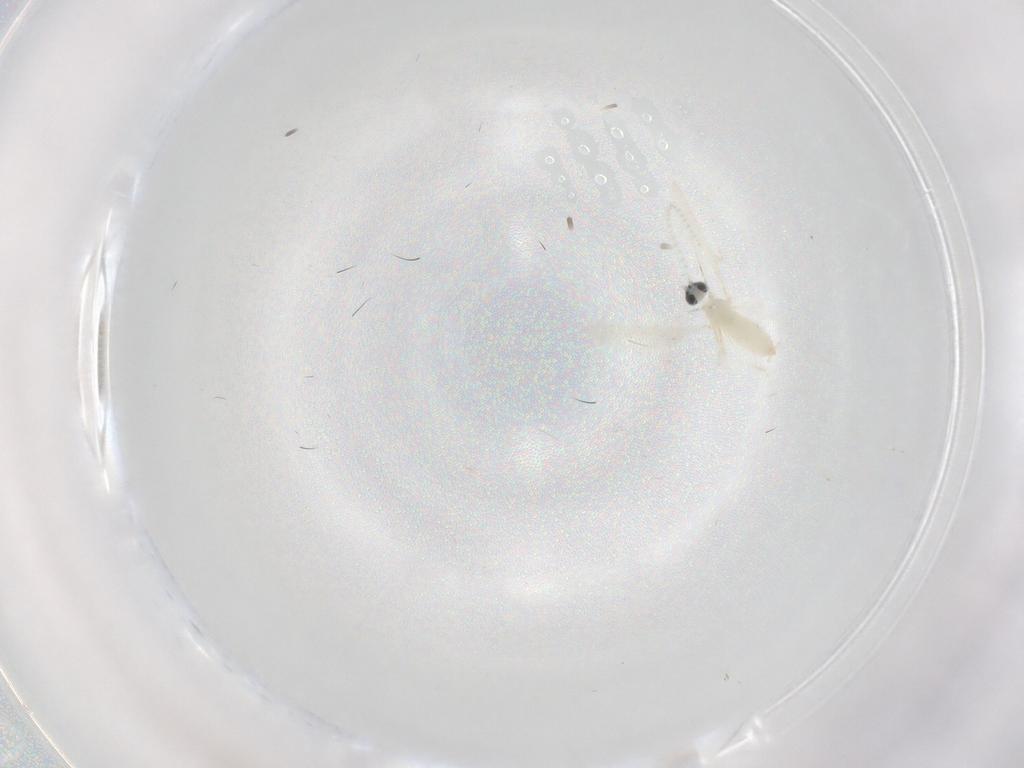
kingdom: Animalia
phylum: Arthropoda
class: Insecta
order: Diptera
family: Cecidomyiidae
